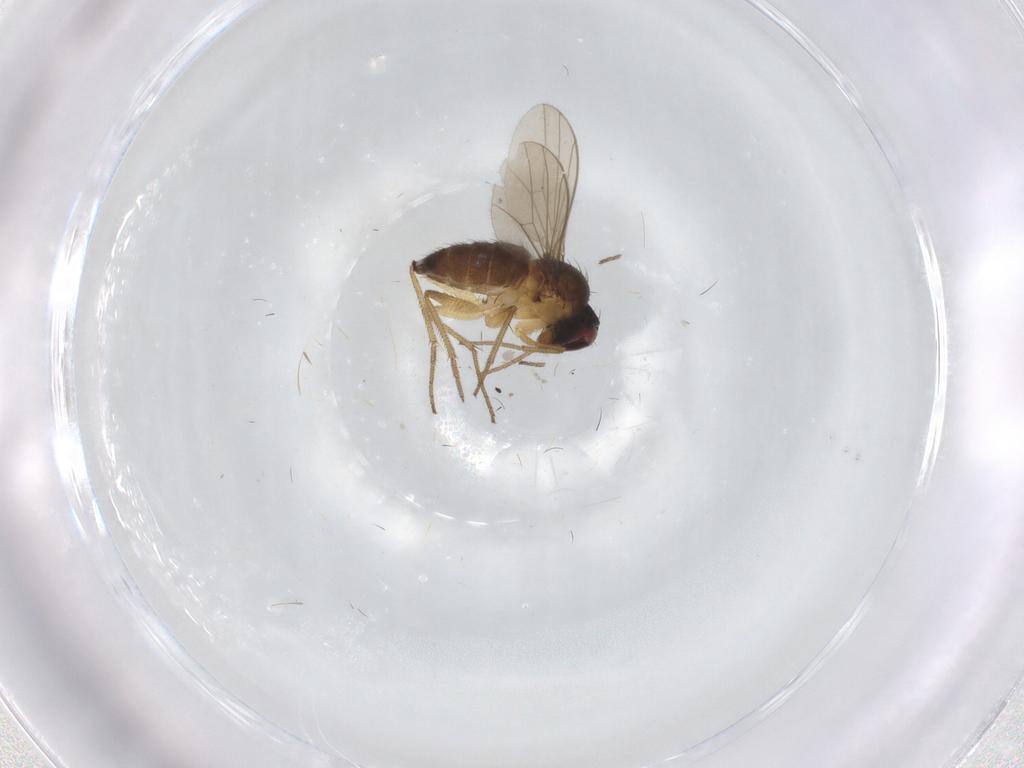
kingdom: Animalia
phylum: Arthropoda
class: Insecta
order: Diptera
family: Dolichopodidae
